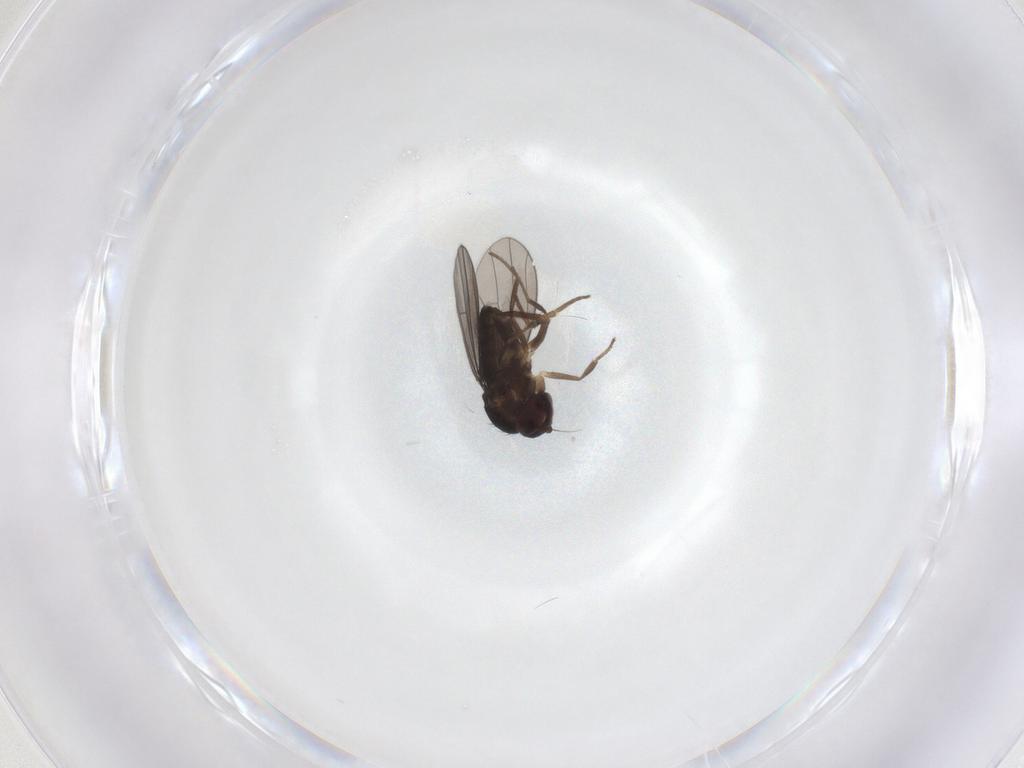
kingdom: Animalia
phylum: Arthropoda
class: Insecta
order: Diptera
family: Dolichopodidae
